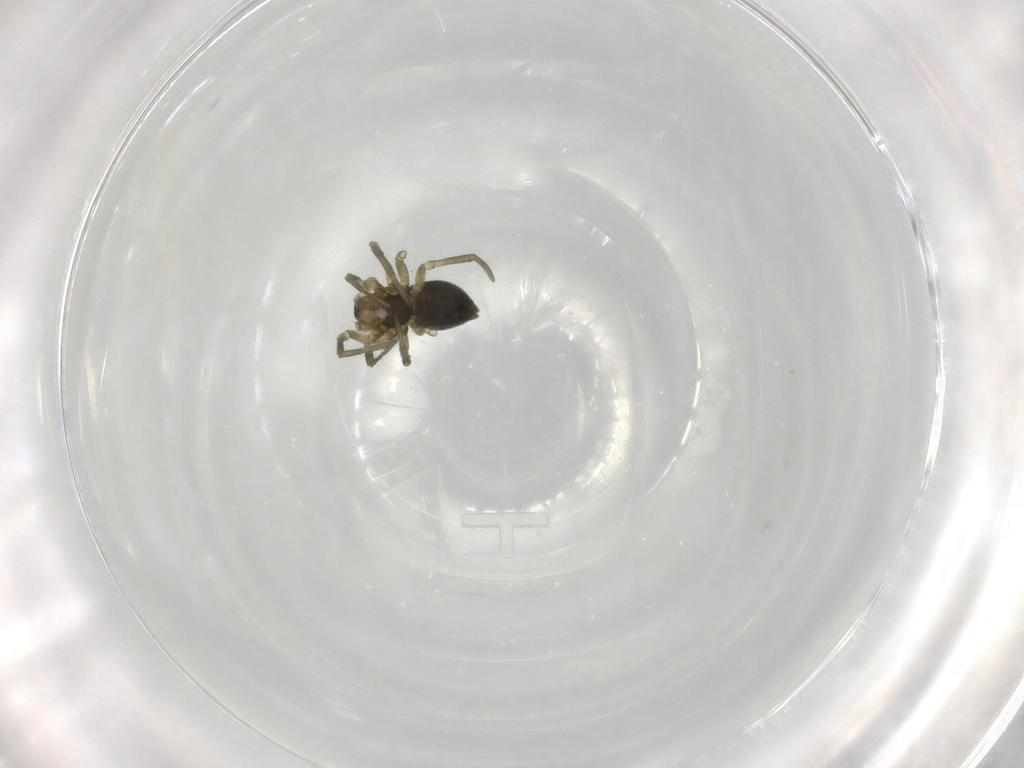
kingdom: Animalia
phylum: Arthropoda
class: Arachnida
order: Araneae
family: Linyphiidae
